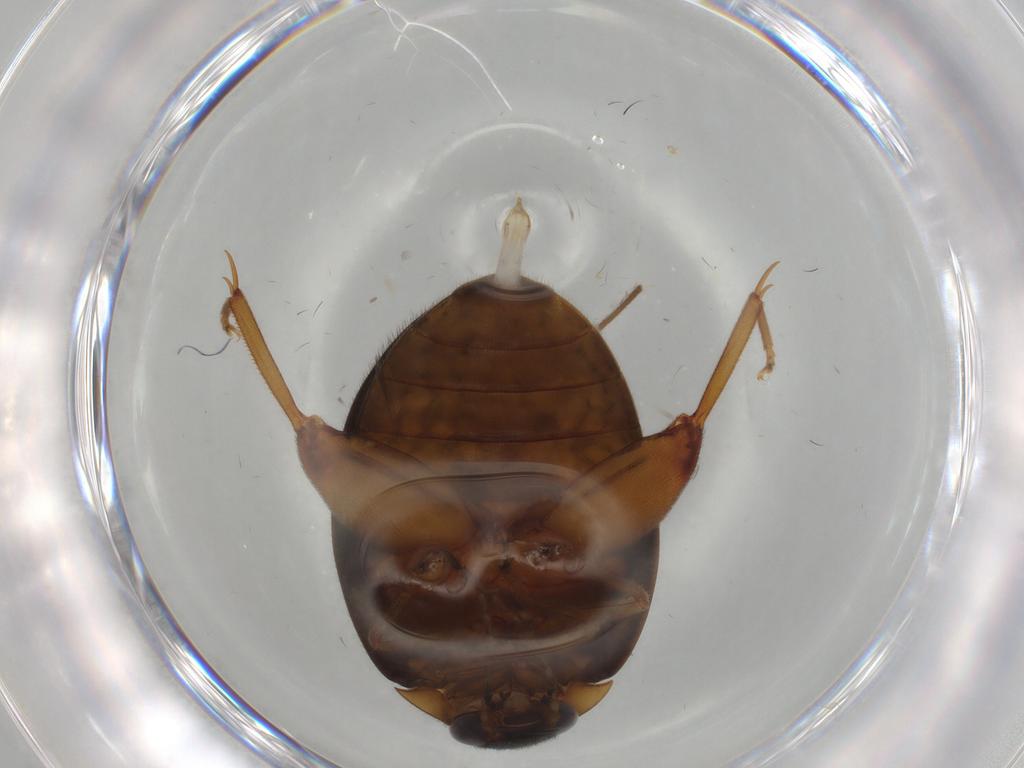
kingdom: Animalia
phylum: Arthropoda
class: Insecta
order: Coleoptera
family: Scirtidae
